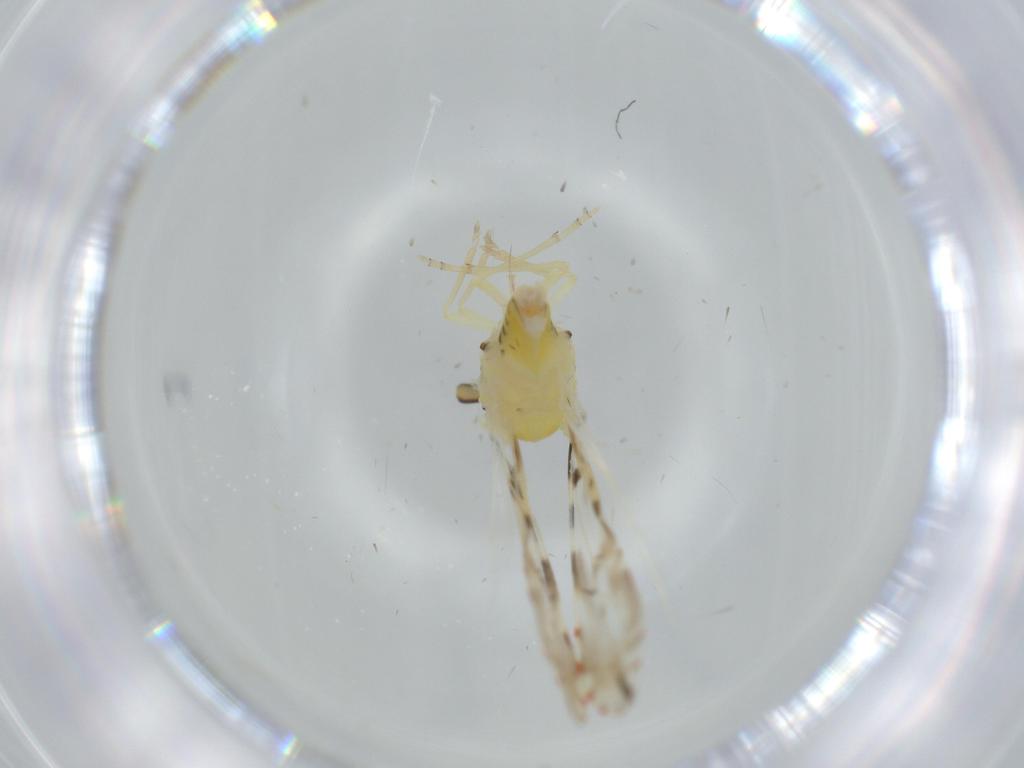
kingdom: Animalia
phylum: Arthropoda
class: Insecta
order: Hemiptera
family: Derbidae
